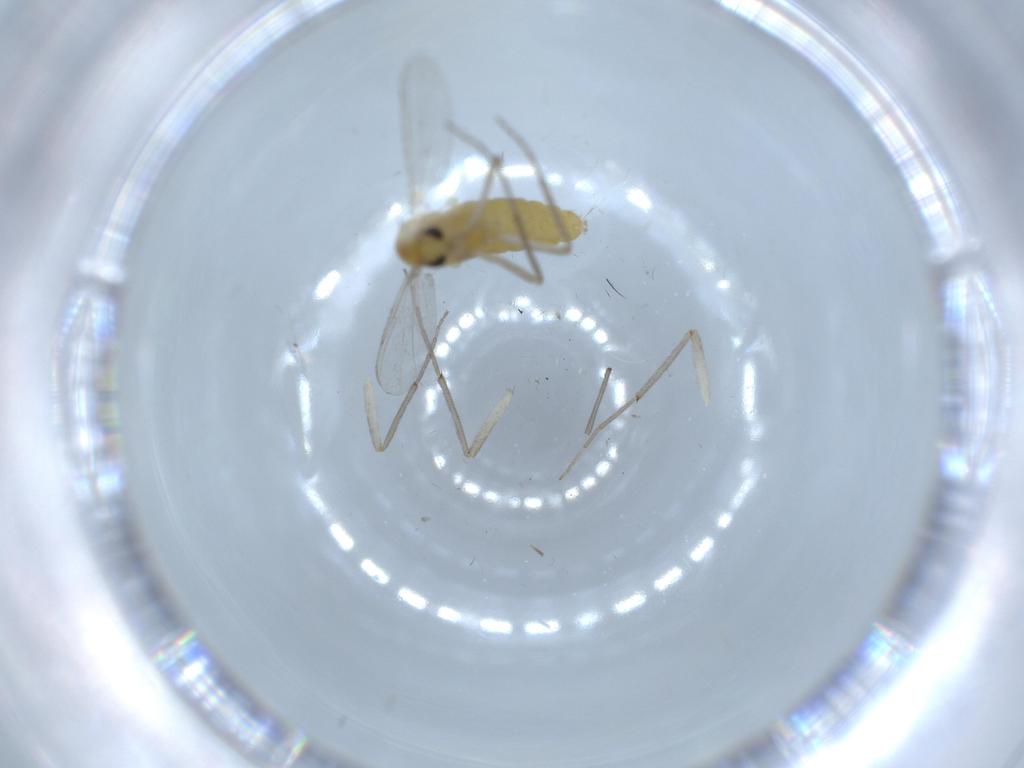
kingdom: Animalia
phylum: Arthropoda
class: Insecta
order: Diptera
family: Chironomidae
